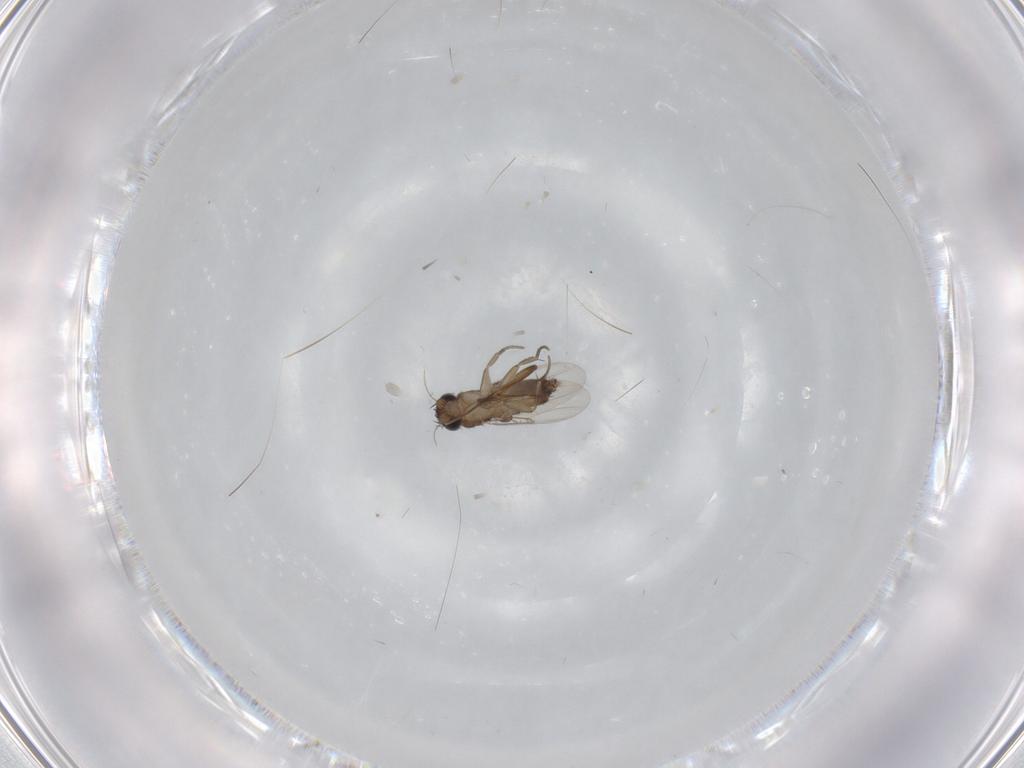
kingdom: Animalia
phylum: Arthropoda
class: Insecta
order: Diptera
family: Phoridae
